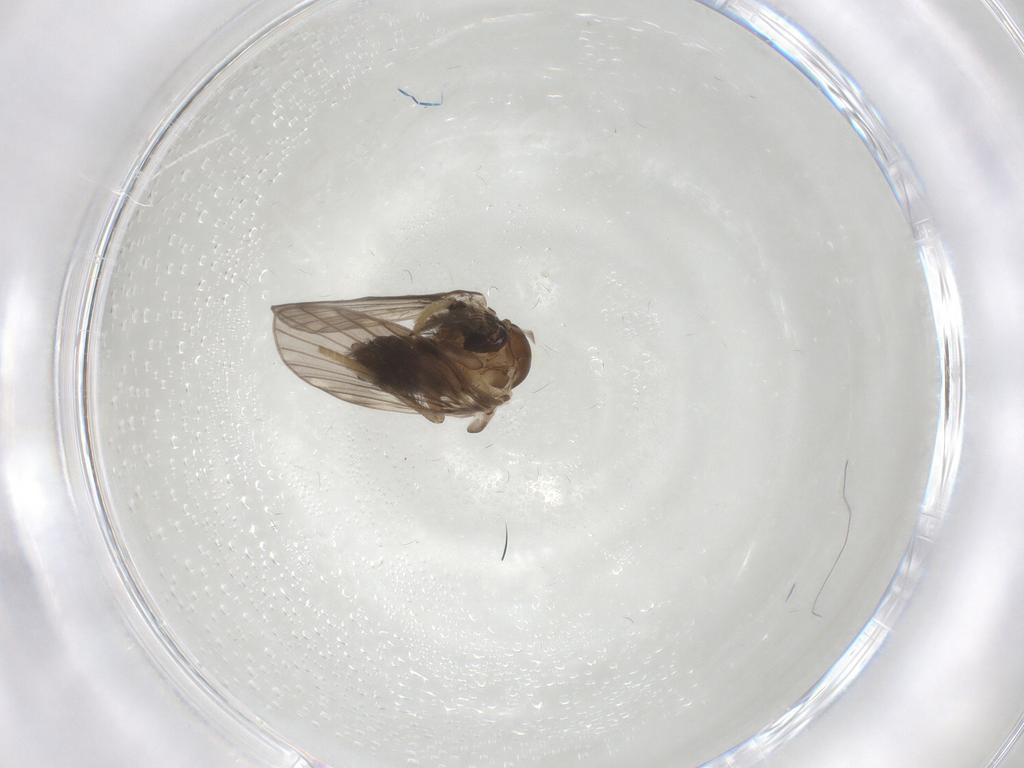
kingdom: Animalia
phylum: Arthropoda
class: Insecta
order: Diptera
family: Psychodidae
